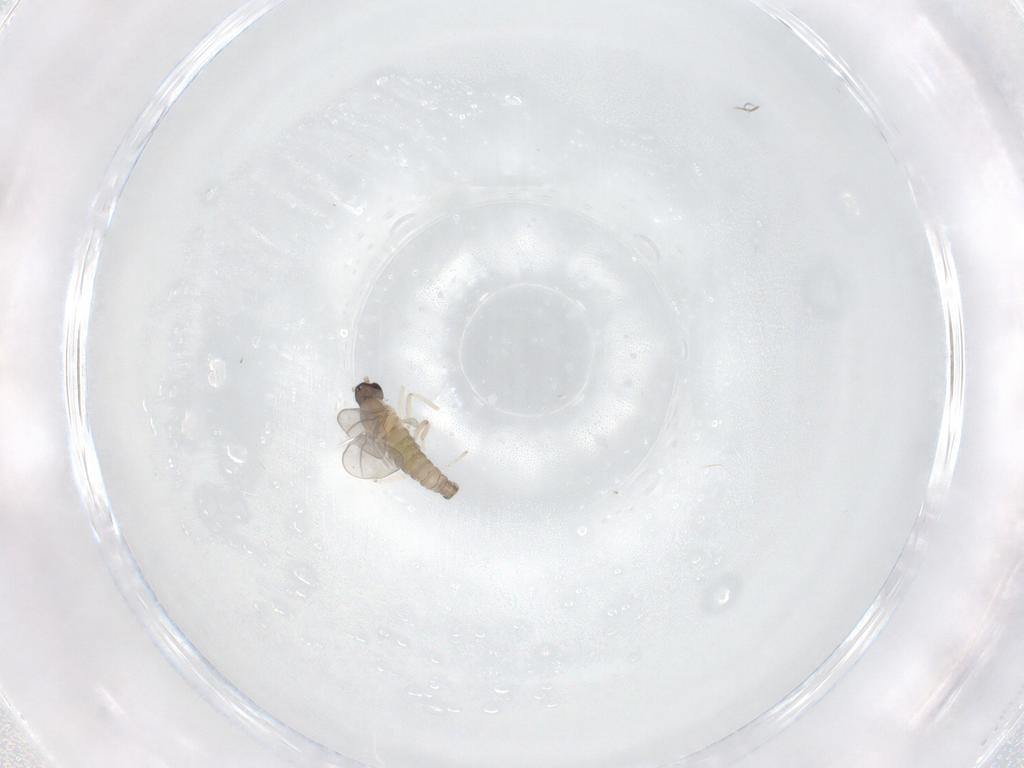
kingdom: Animalia
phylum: Arthropoda
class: Insecta
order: Diptera
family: Cecidomyiidae
